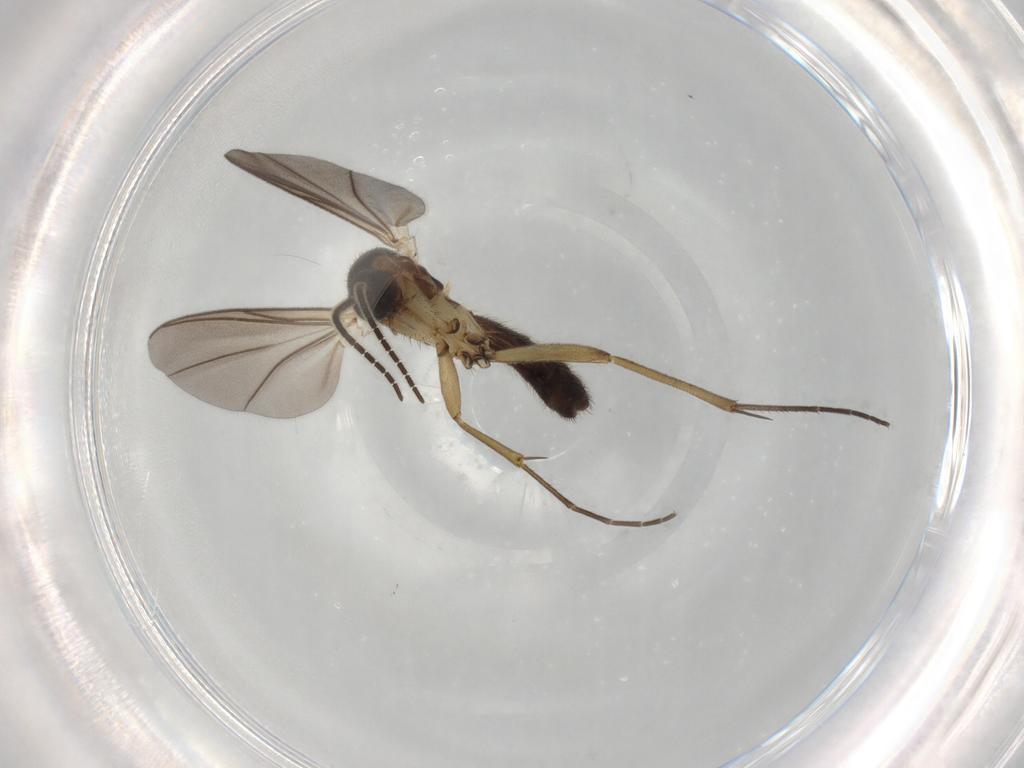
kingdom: Animalia
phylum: Arthropoda
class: Insecta
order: Diptera
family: Mycetophilidae
